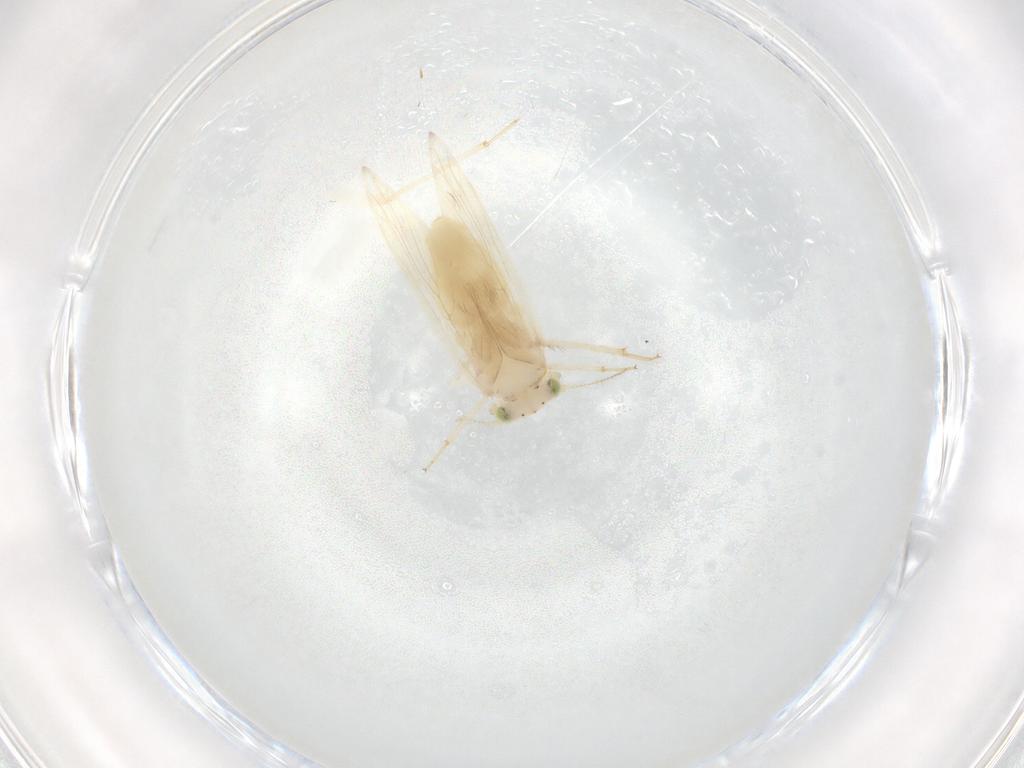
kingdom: Animalia
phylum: Arthropoda
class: Insecta
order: Psocodea
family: Lepidopsocidae
